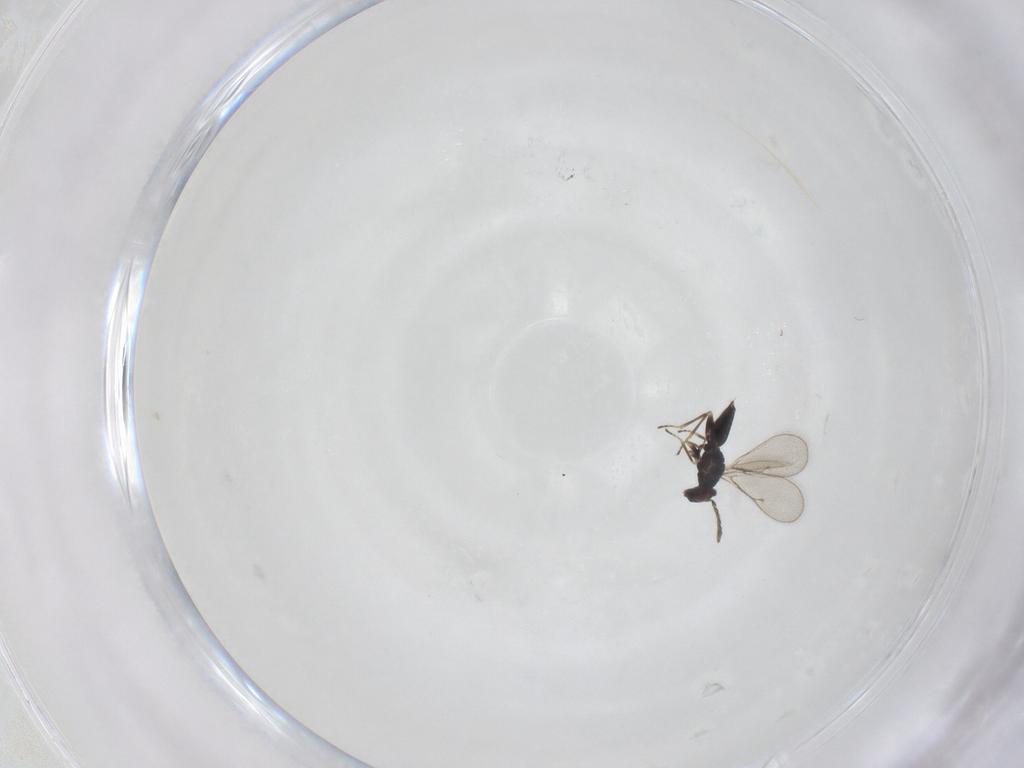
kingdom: Animalia
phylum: Arthropoda
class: Insecta
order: Hymenoptera
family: Eulophidae
